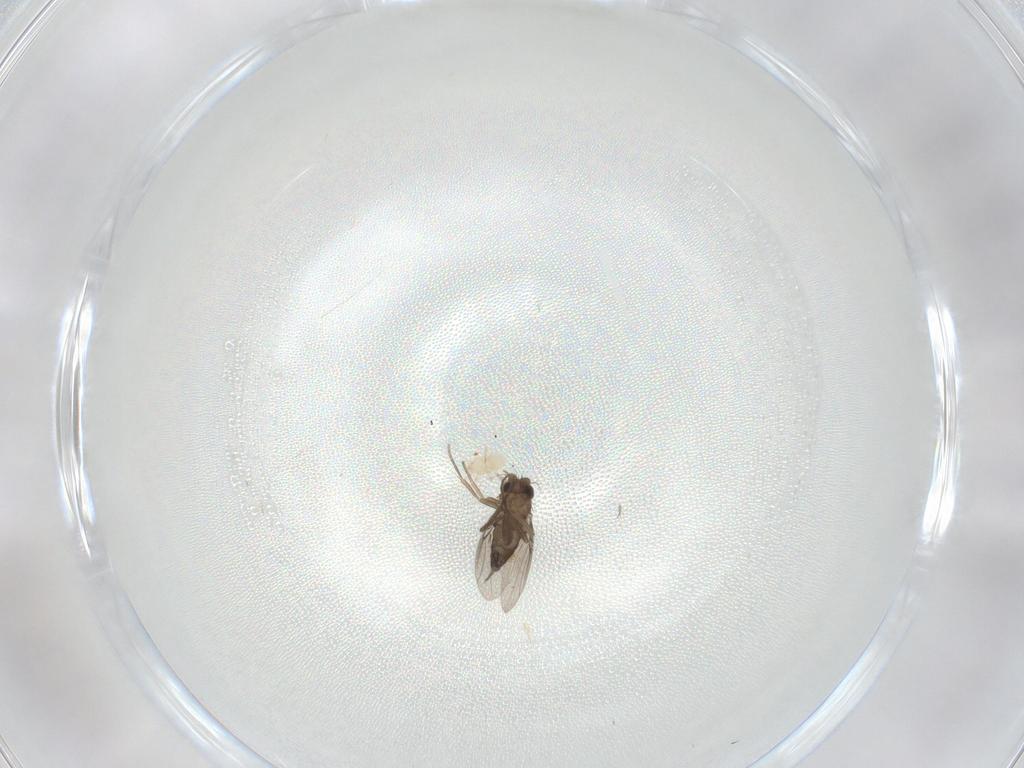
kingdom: Animalia
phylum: Arthropoda
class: Insecta
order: Diptera
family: Phoridae
